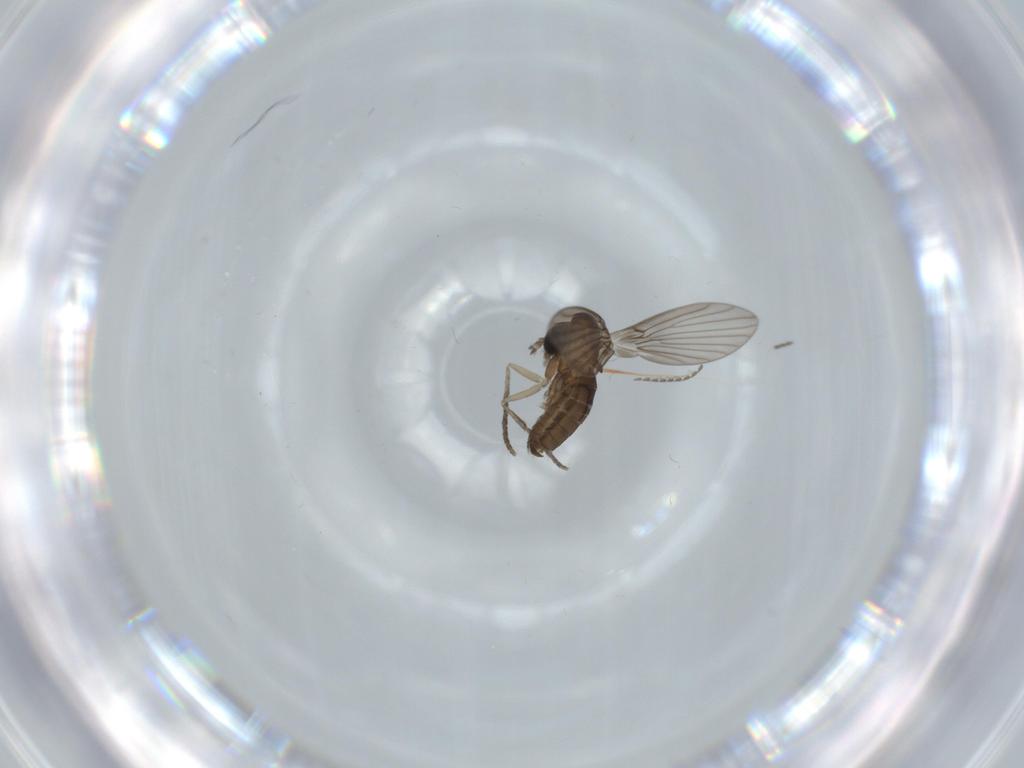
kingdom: Animalia
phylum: Arthropoda
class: Insecta
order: Diptera
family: Psychodidae
